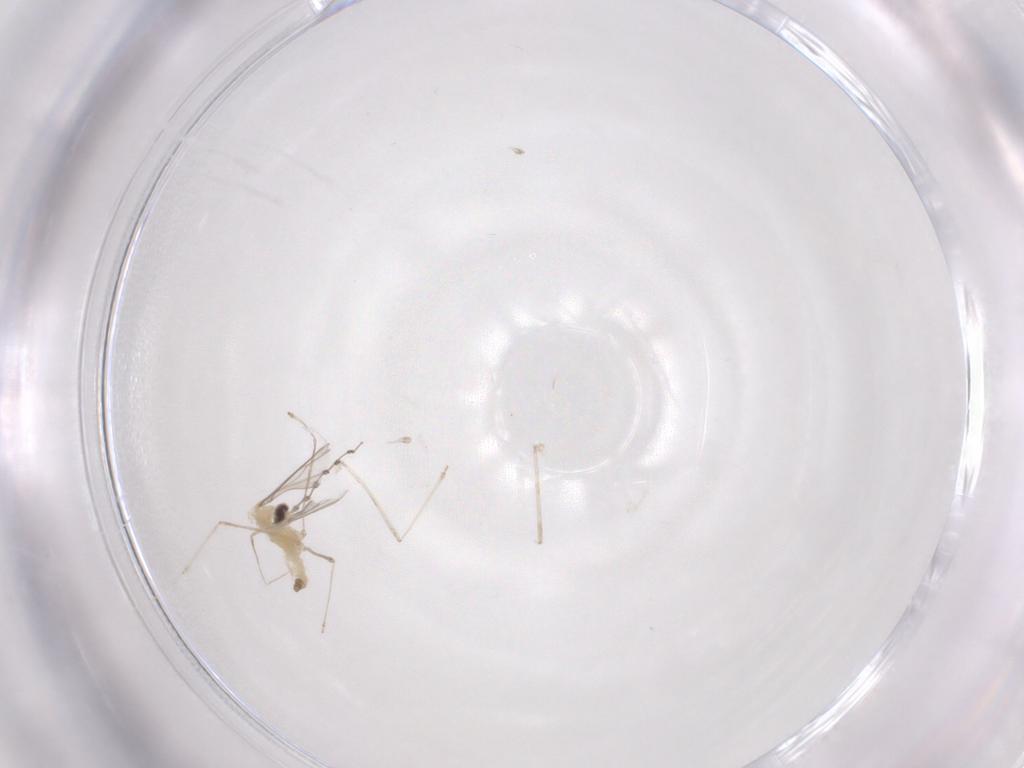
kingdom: Animalia
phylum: Arthropoda
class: Insecta
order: Diptera
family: Cecidomyiidae
